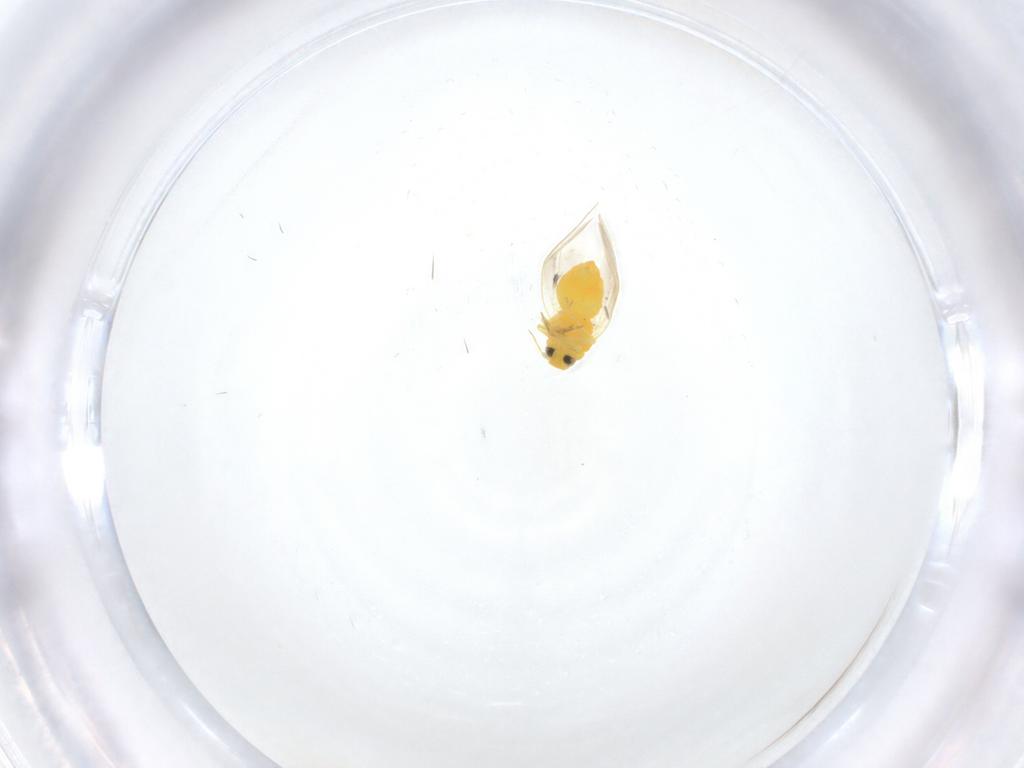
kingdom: Animalia
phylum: Arthropoda
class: Insecta
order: Hemiptera
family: Aleyrodidae
